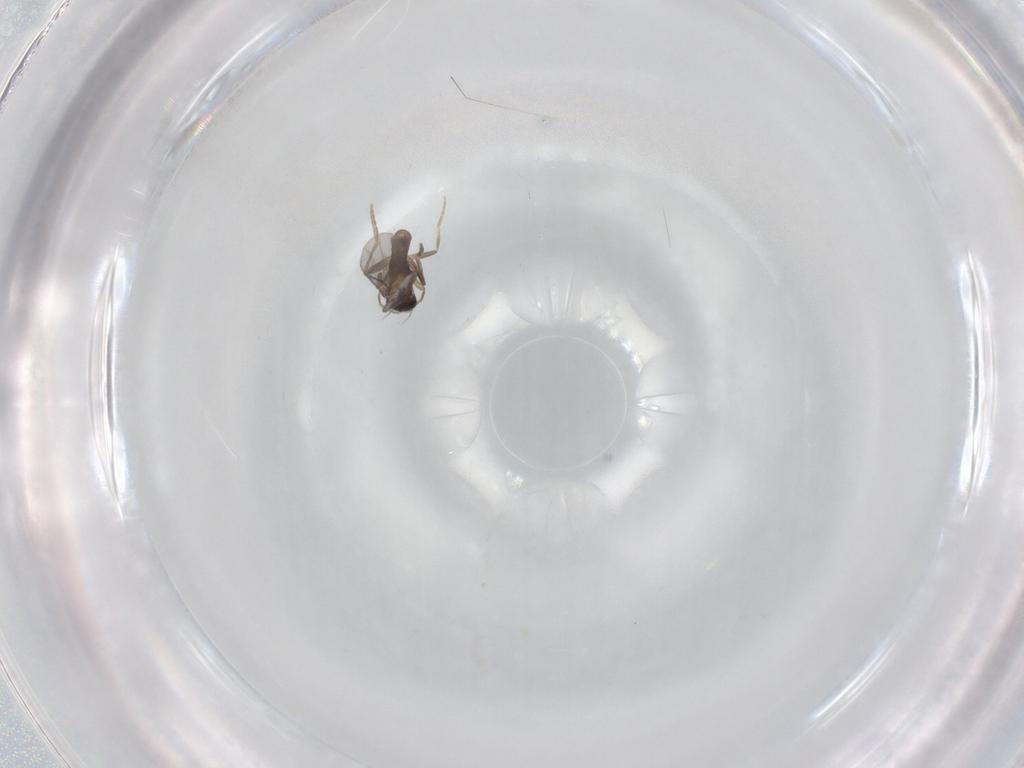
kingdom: Animalia
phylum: Arthropoda
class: Insecta
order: Diptera
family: Cecidomyiidae
